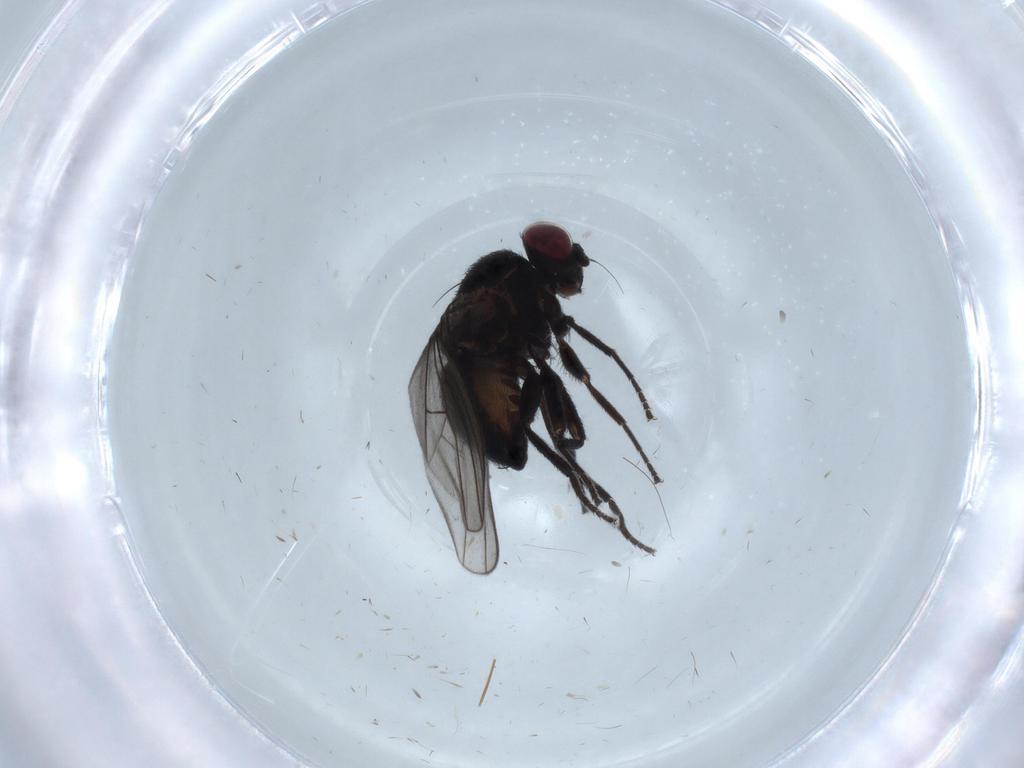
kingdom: Animalia
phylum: Arthropoda
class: Insecta
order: Diptera
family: Agromyzidae
